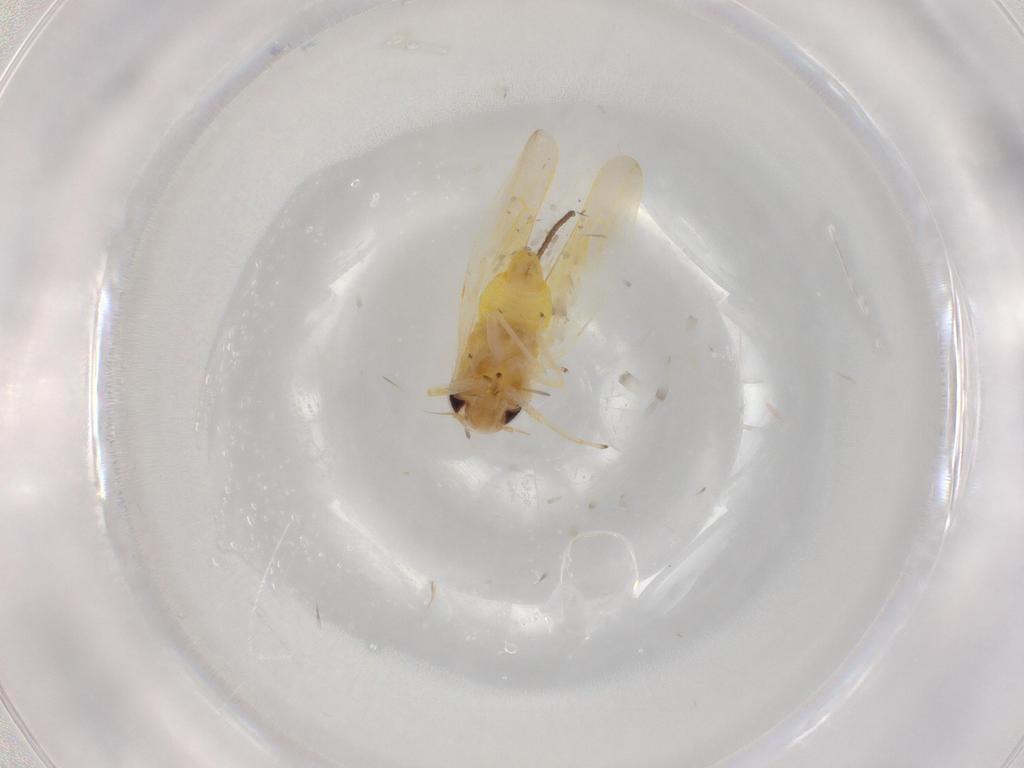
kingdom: Animalia
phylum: Arthropoda
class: Insecta
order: Hemiptera
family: Cicadellidae
